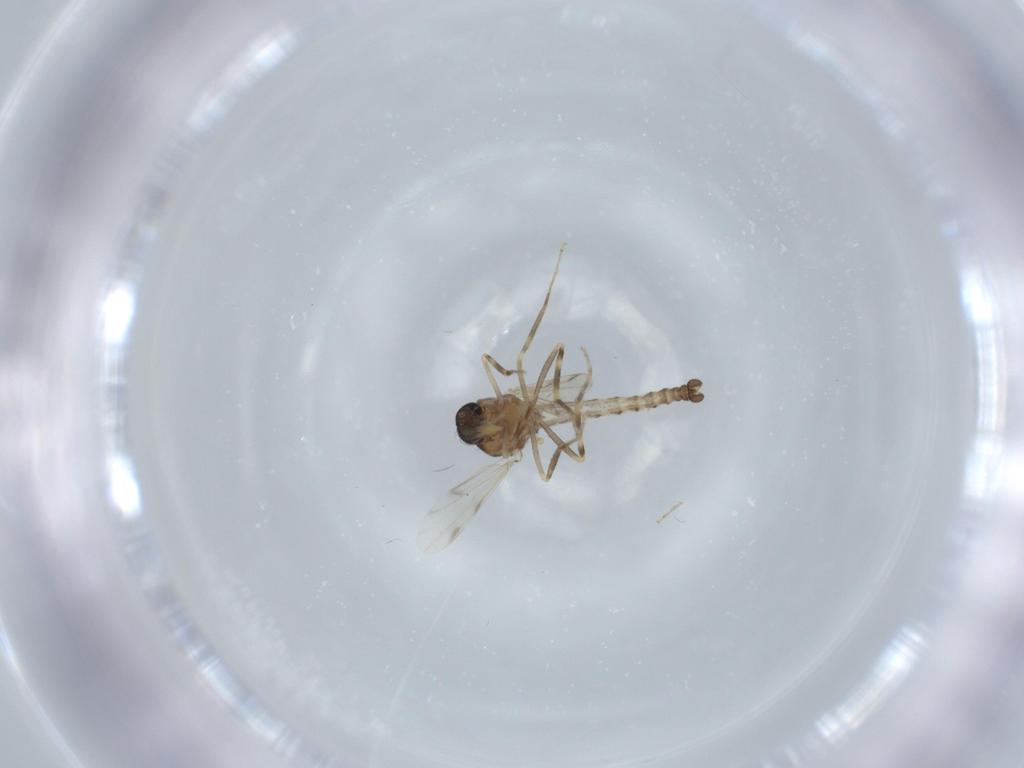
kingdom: Animalia
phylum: Arthropoda
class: Insecta
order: Diptera
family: Ceratopogonidae
